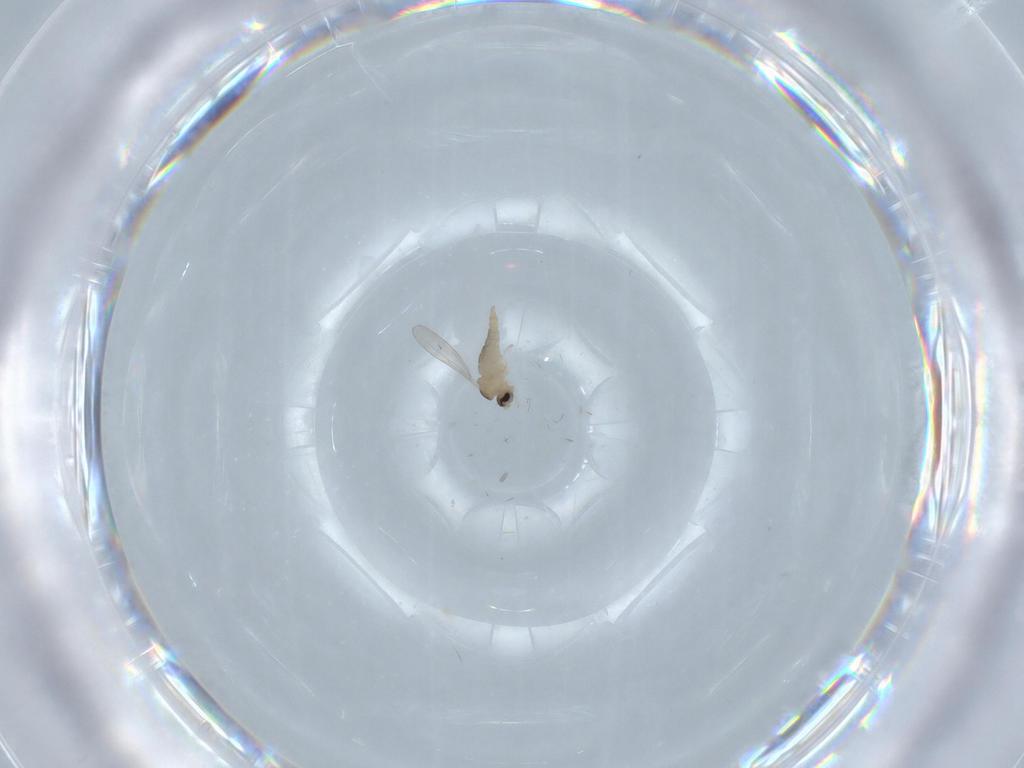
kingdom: Animalia
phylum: Arthropoda
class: Insecta
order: Diptera
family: Cecidomyiidae
